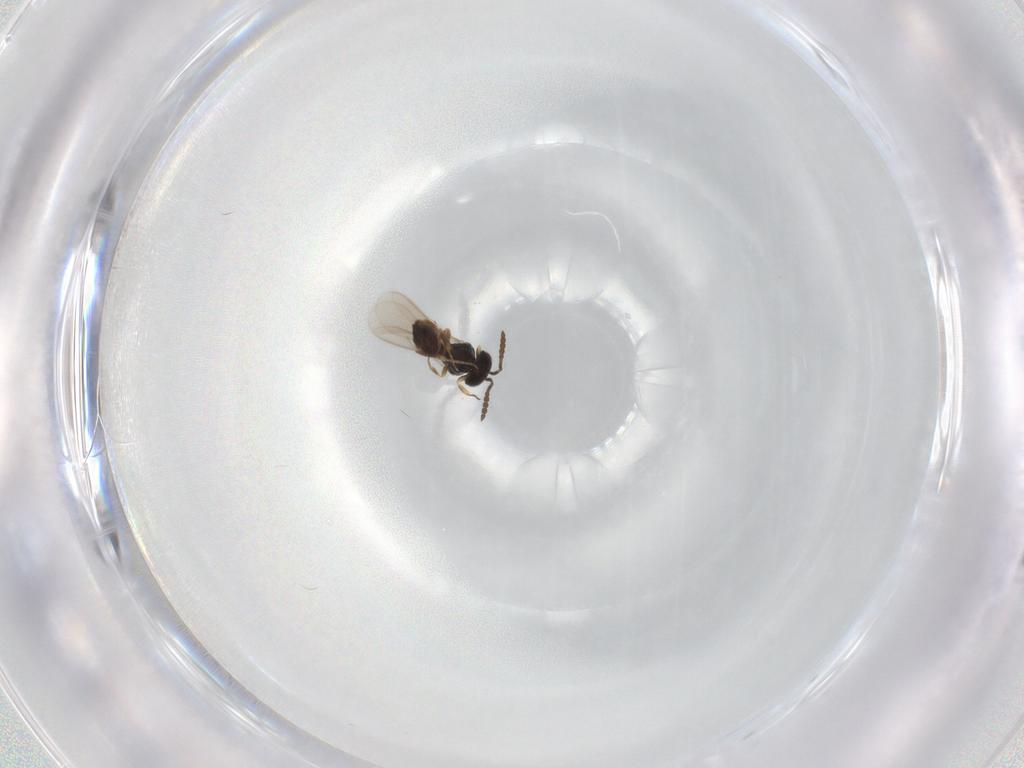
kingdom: Animalia
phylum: Arthropoda
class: Insecta
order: Hymenoptera
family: Scelionidae
